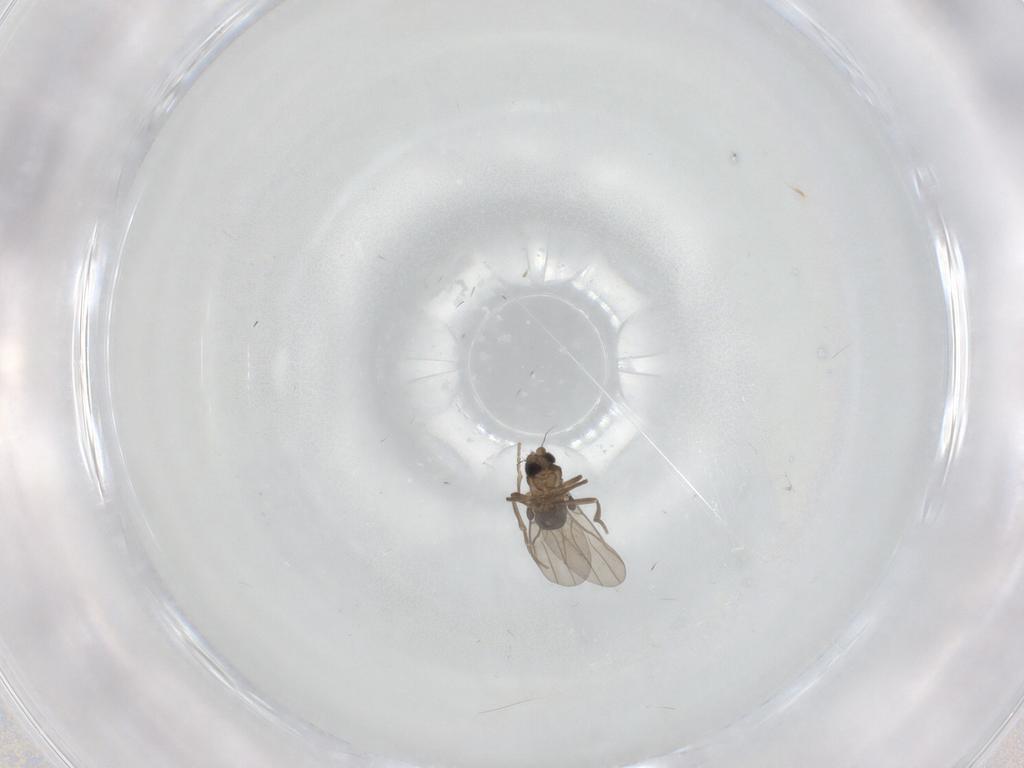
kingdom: Animalia
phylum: Arthropoda
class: Insecta
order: Diptera
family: Phoridae
